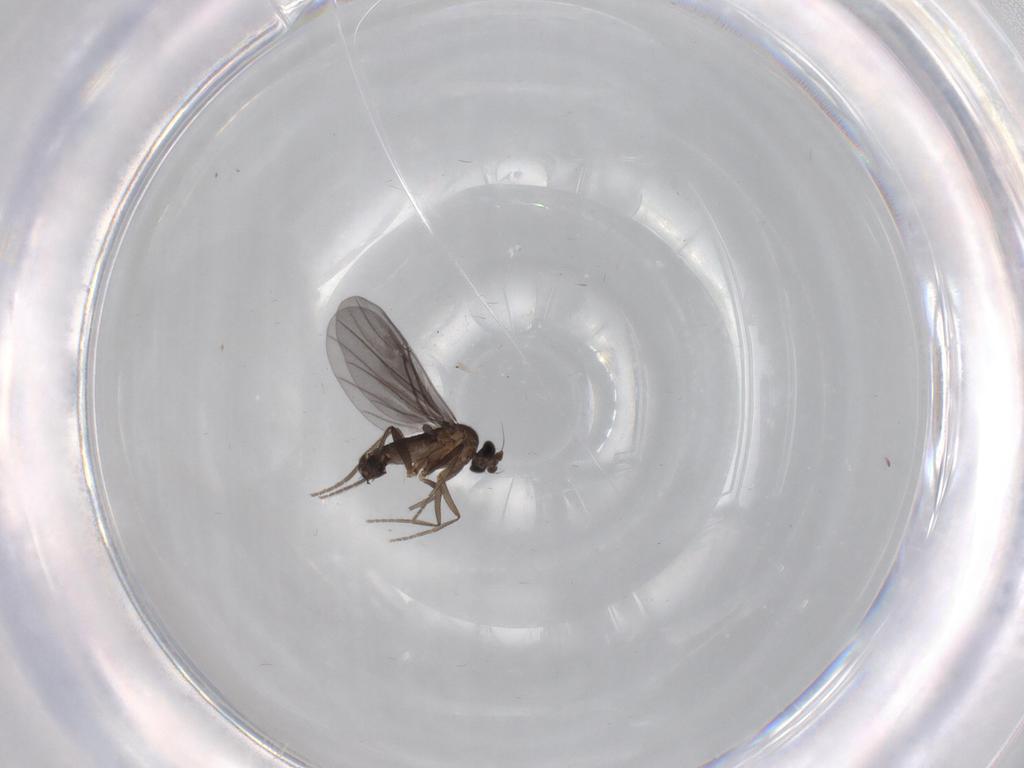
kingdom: Animalia
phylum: Arthropoda
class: Insecta
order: Diptera
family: Phoridae
